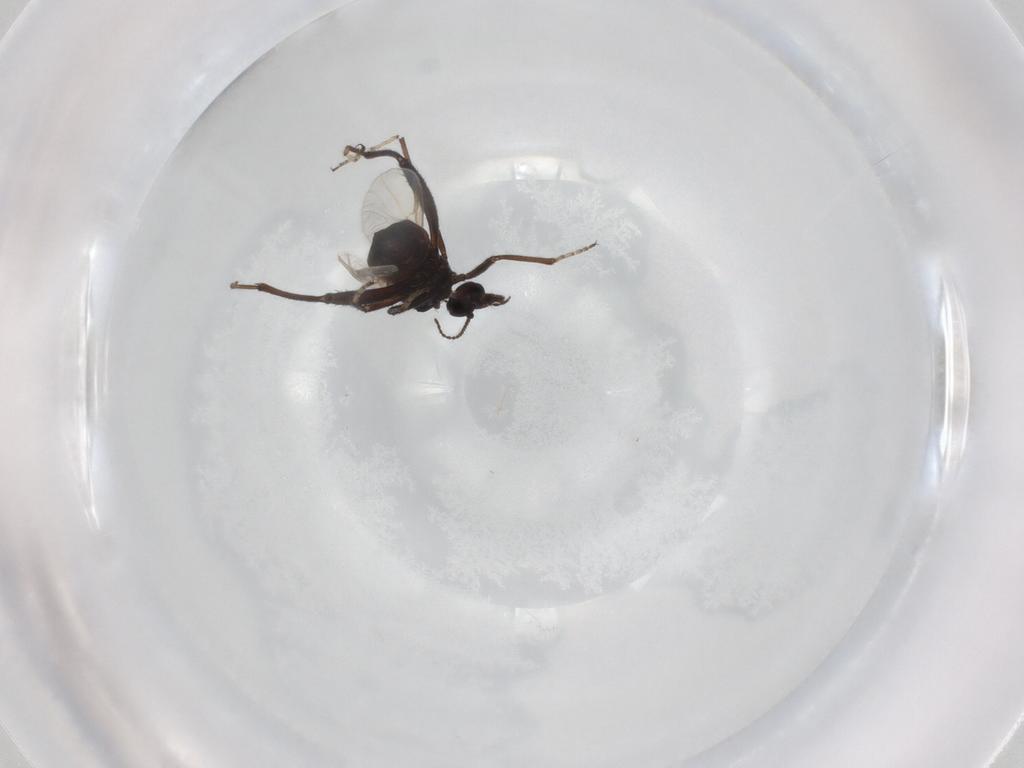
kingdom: Animalia
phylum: Arthropoda
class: Insecta
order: Diptera
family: Ceratopogonidae
